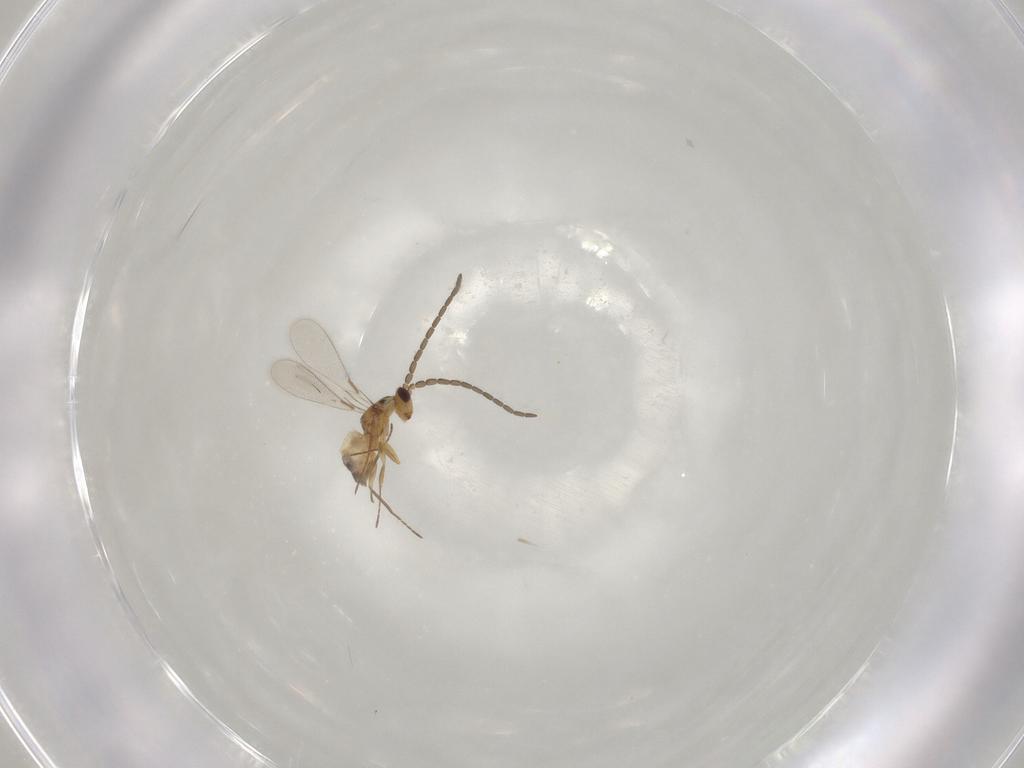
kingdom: Animalia
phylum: Arthropoda
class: Insecta
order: Hymenoptera
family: Mymaridae
